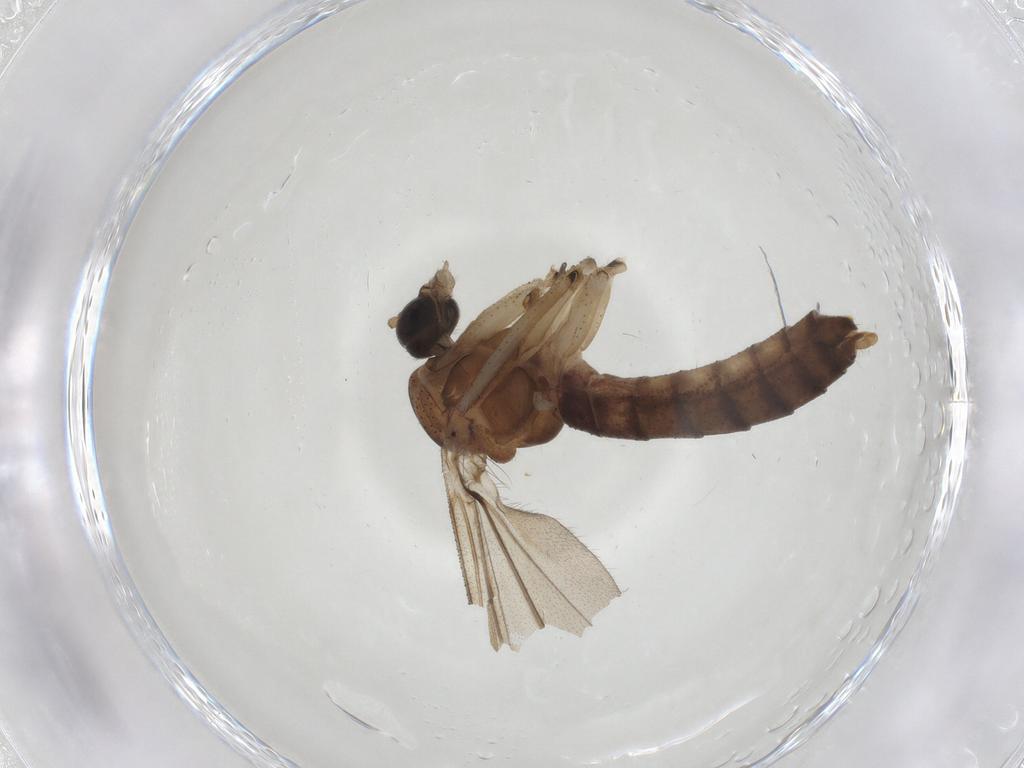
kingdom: Animalia
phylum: Arthropoda
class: Insecta
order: Diptera
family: Chironomidae
